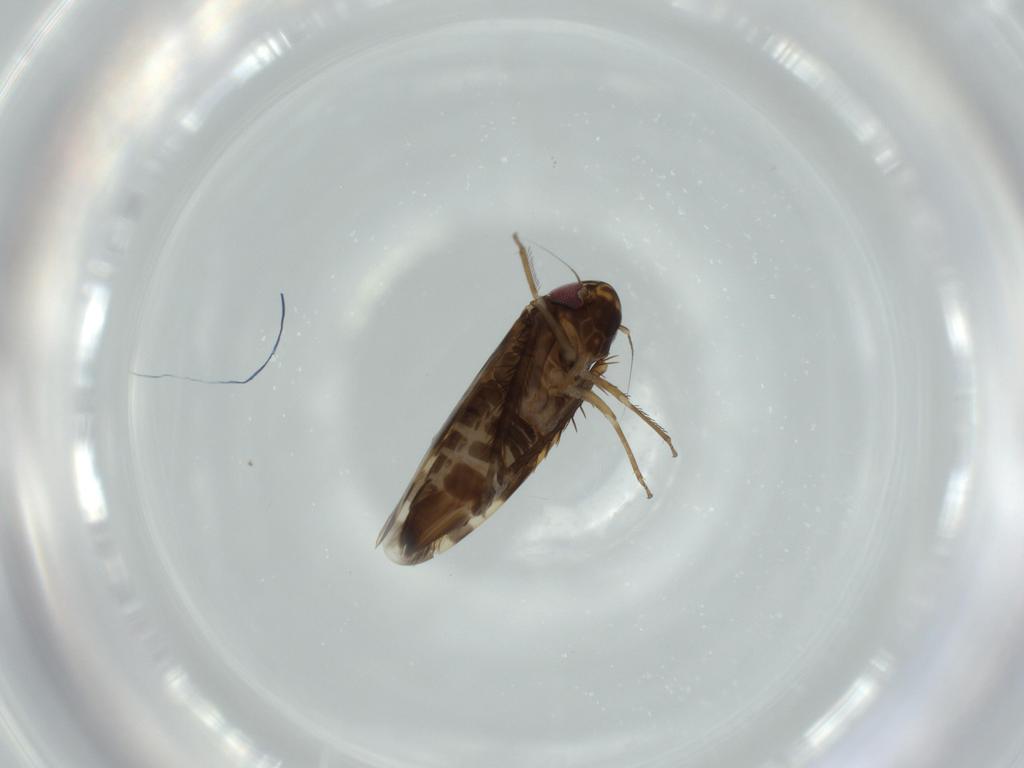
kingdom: Animalia
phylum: Arthropoda
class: Insecta
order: Hemiptera
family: Cicadellidae
